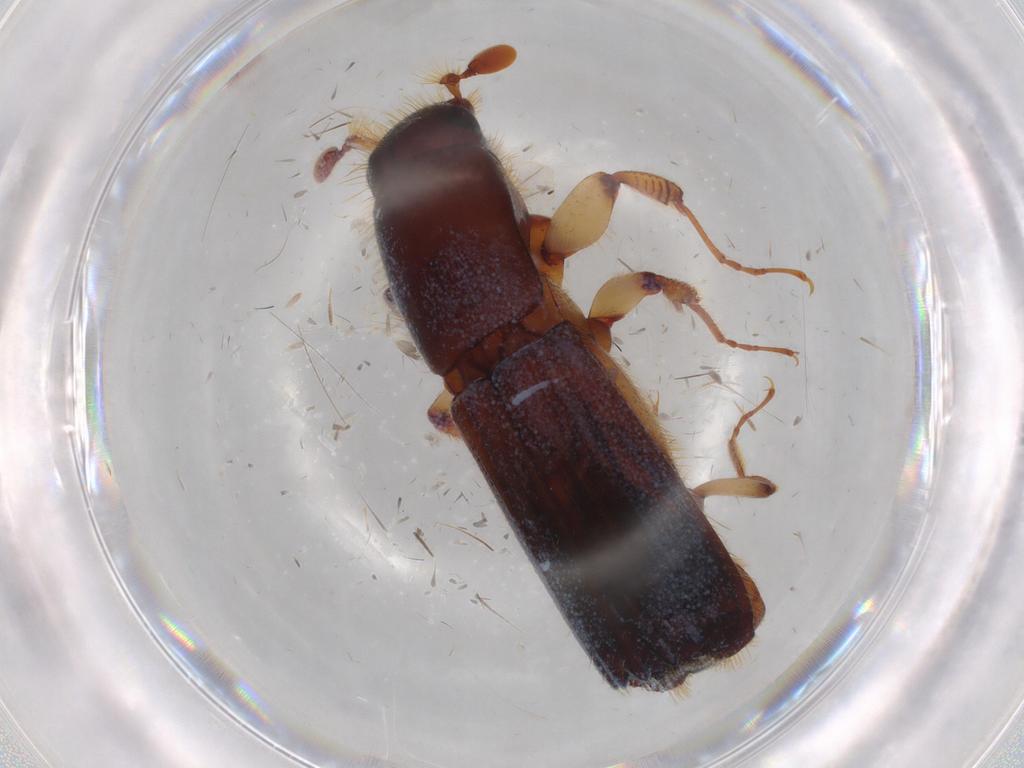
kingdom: Animalia
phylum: Arthropoda
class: Insecta
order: Coleoptera
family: Curculionidae
